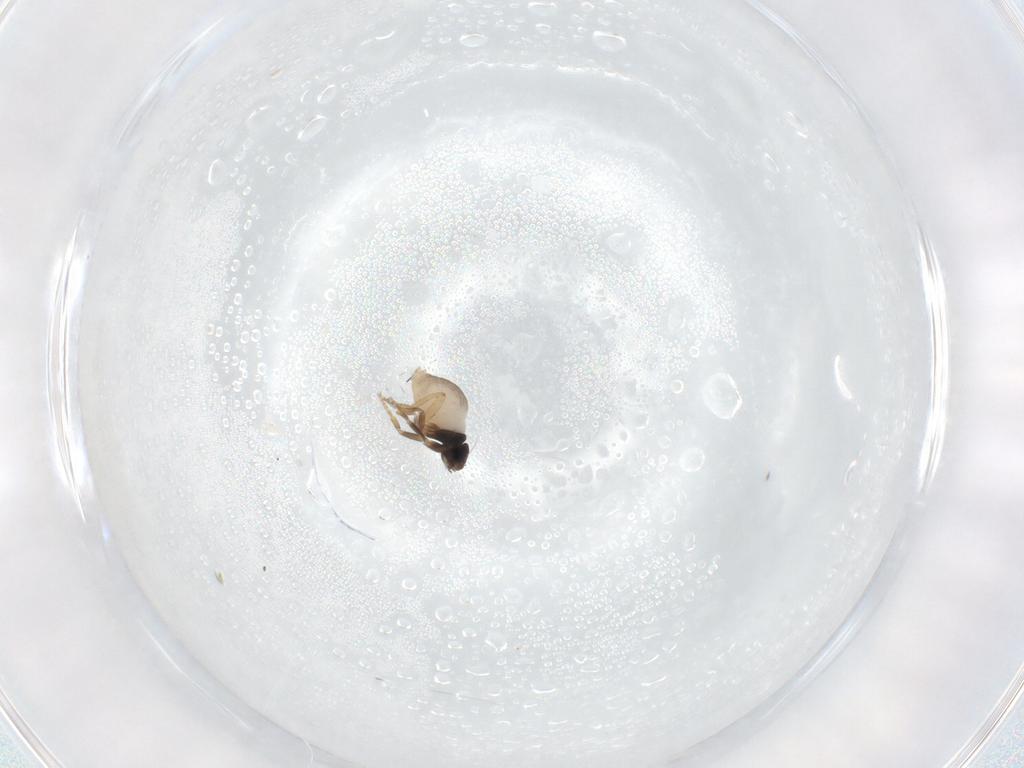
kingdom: Animalia
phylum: Arthropoda
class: Insecta
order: Diptera
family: Phoridae
